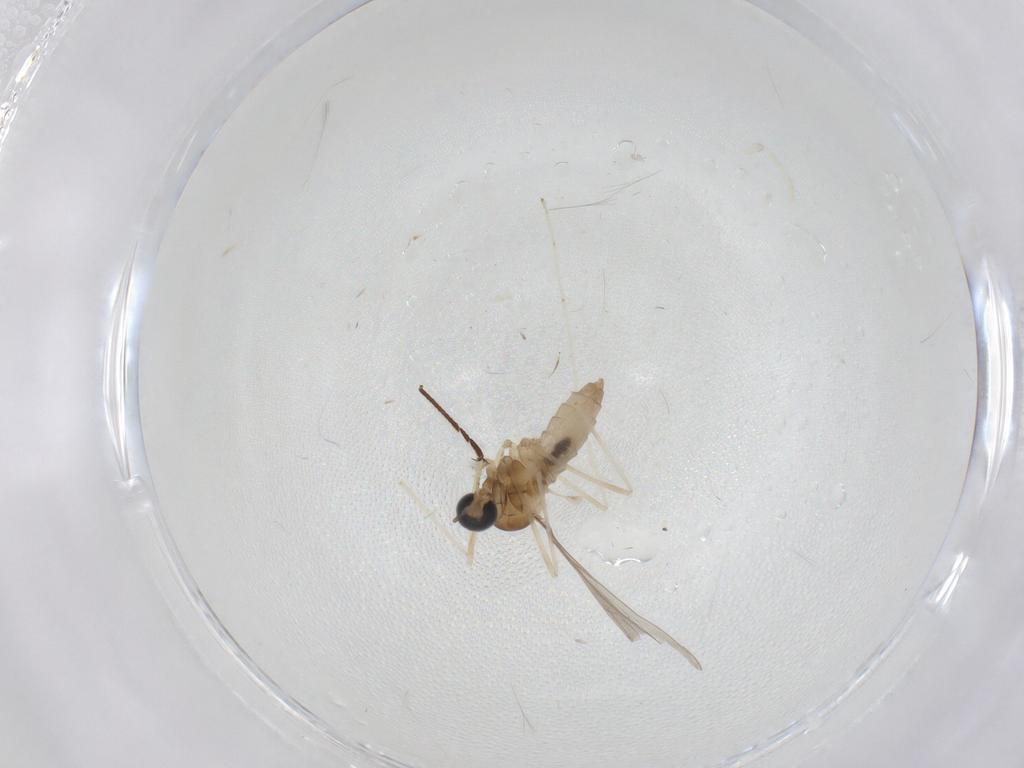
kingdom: Animalia
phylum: Arthropoda
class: Insecta
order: Diptera
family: Cecidomyiidae
